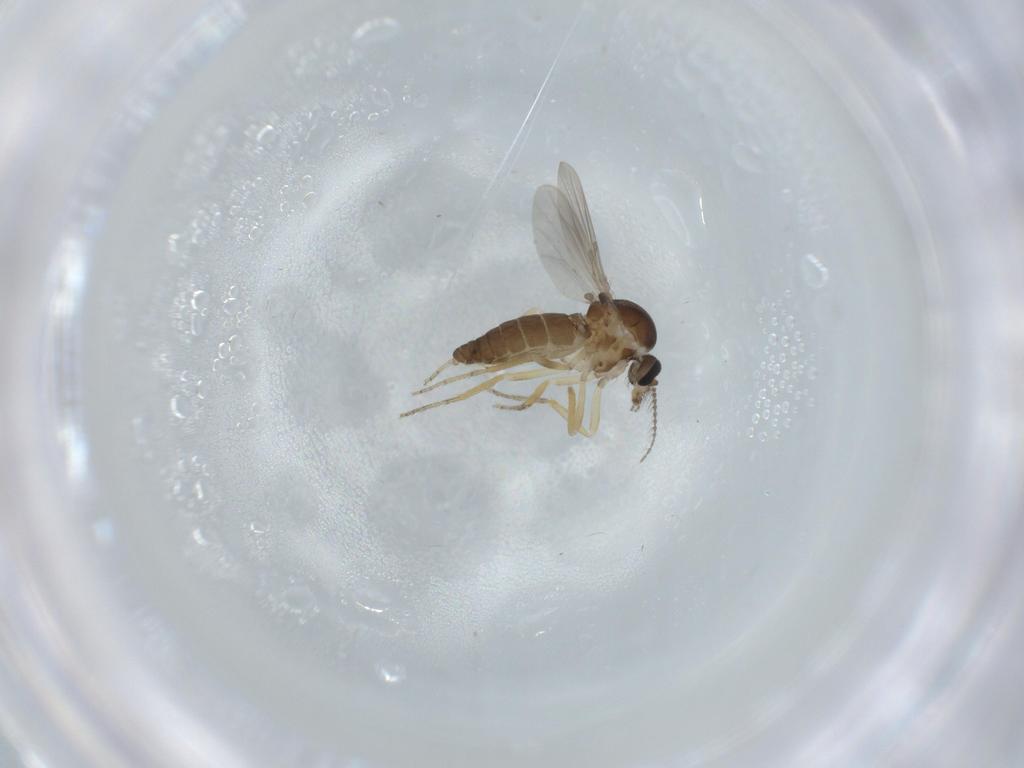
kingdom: Animalia
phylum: Arthropoda
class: Insecta
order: Diptera
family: Ceratopogonidae
